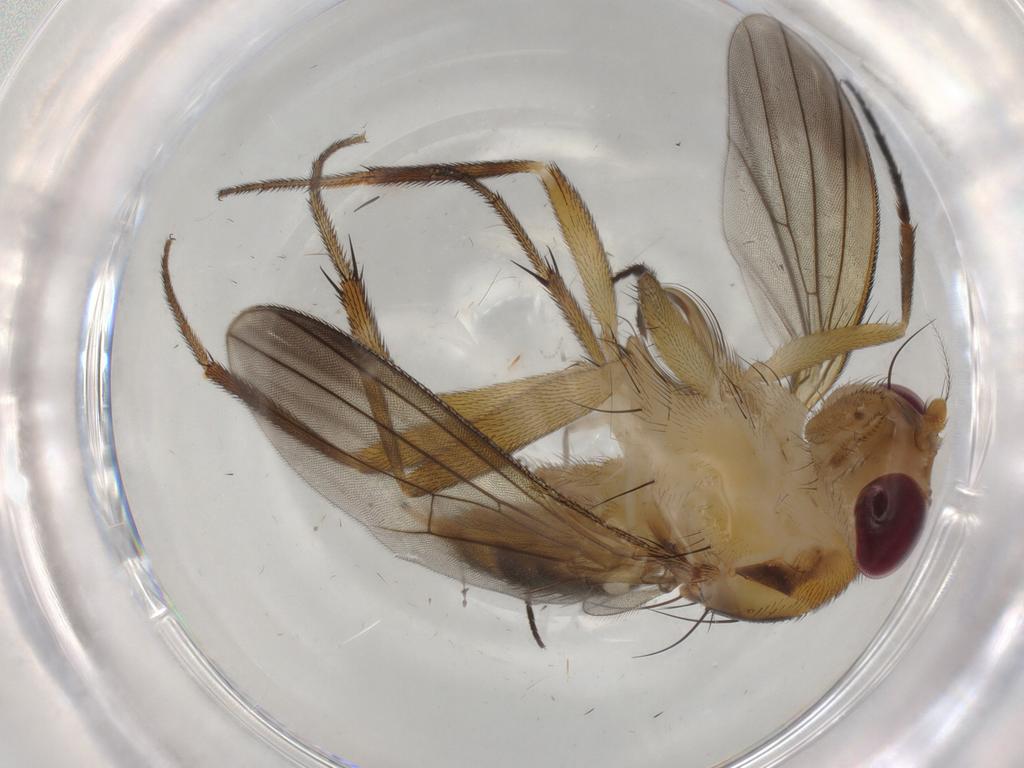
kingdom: Animalia
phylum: Arthropoda
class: Insecta
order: Diptera
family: Clusiidae
